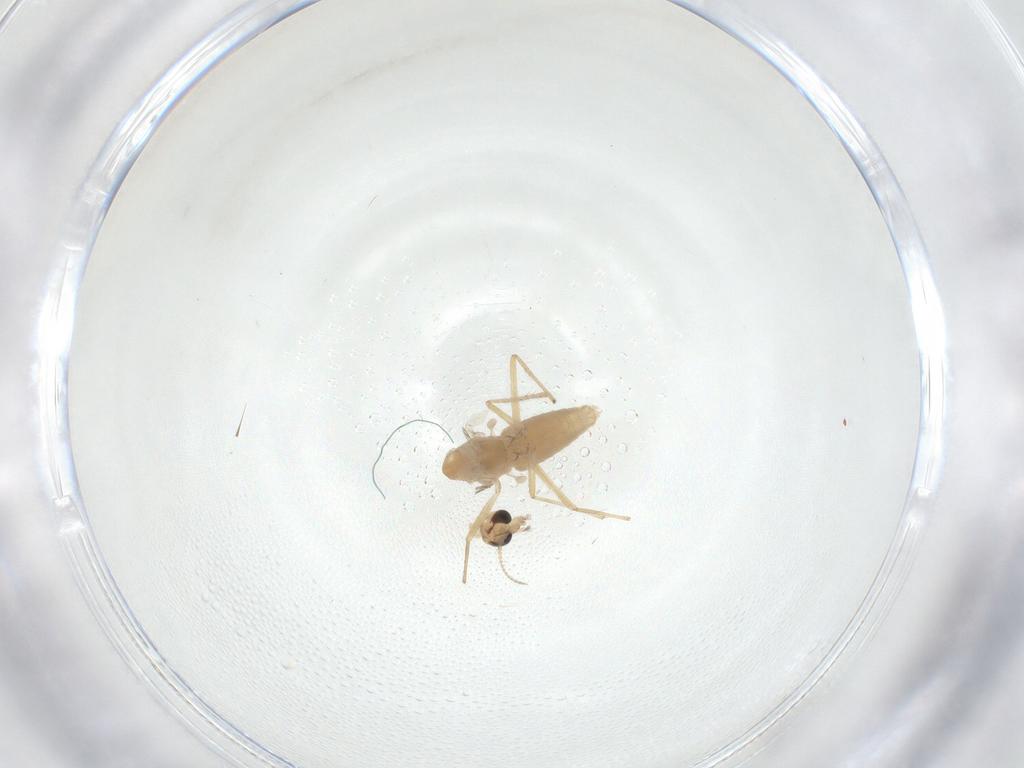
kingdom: Animalia
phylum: Arthropoda
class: Insecta
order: Diptera
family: Chironomidae
